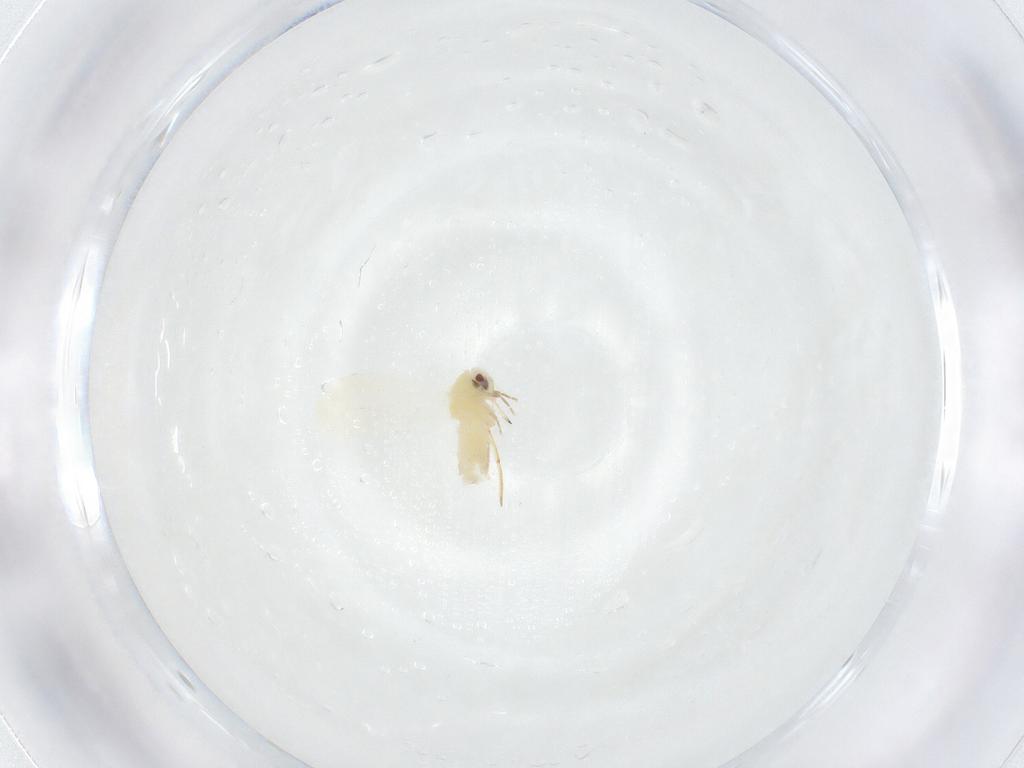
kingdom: Animalia
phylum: Arthropoda
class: Insecta
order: Hemiptera
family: Aleyrodidae
